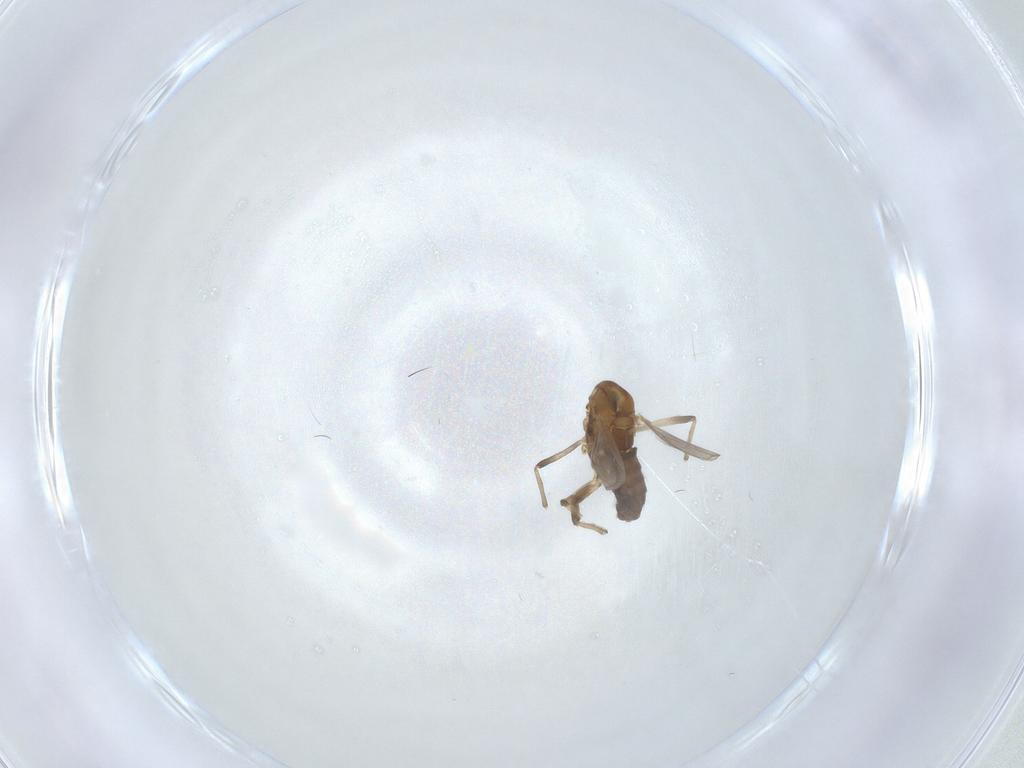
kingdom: Animalia
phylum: Arthropoda
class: Insecta
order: Diptera
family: Chironomidae
